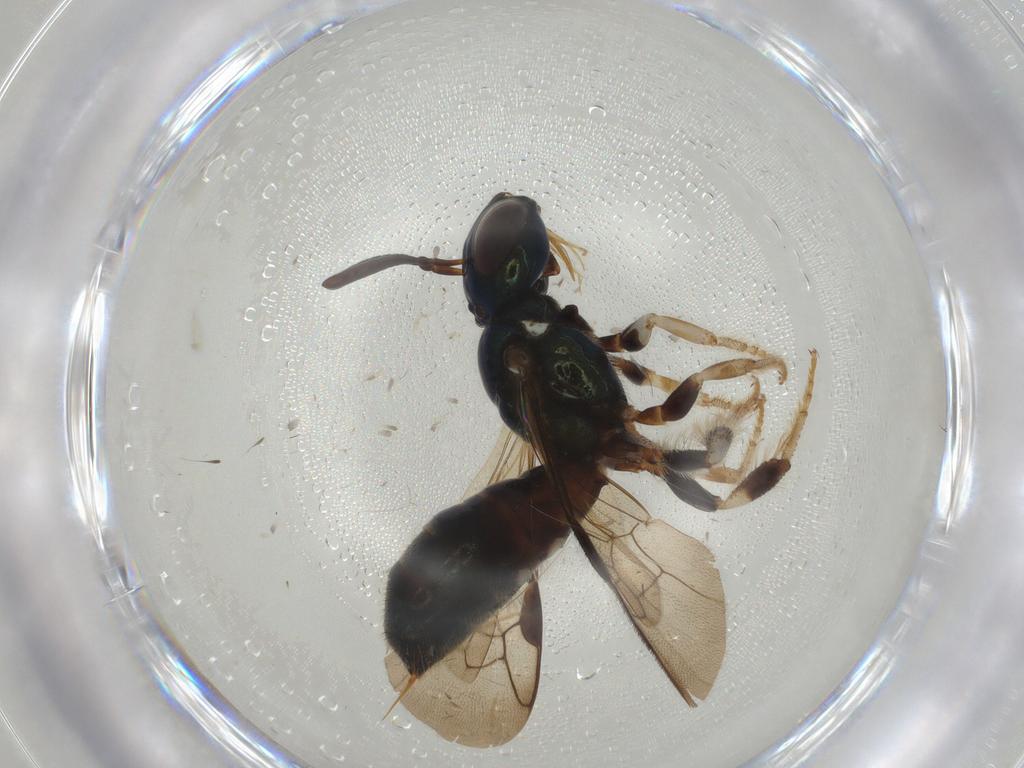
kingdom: Animalia
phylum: Arthropoda
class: Insecta
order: Hymenoptera
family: Apidae
